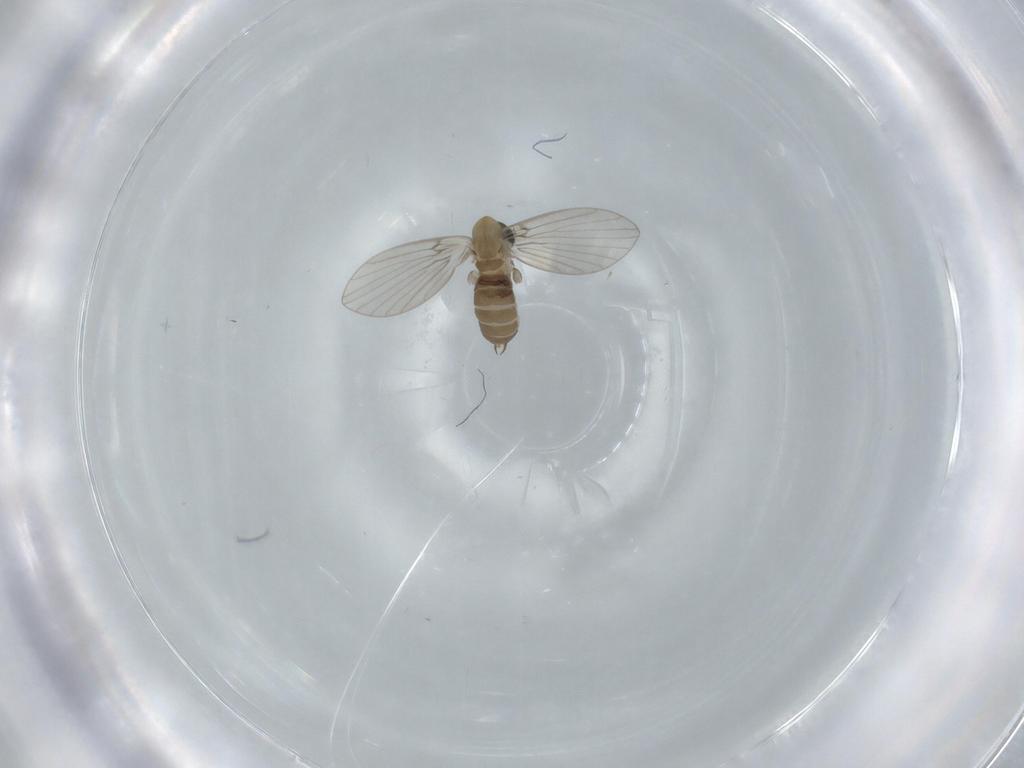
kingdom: Animalia
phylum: Arthropoda
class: Insecta
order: Diptera
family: Psychodidae
